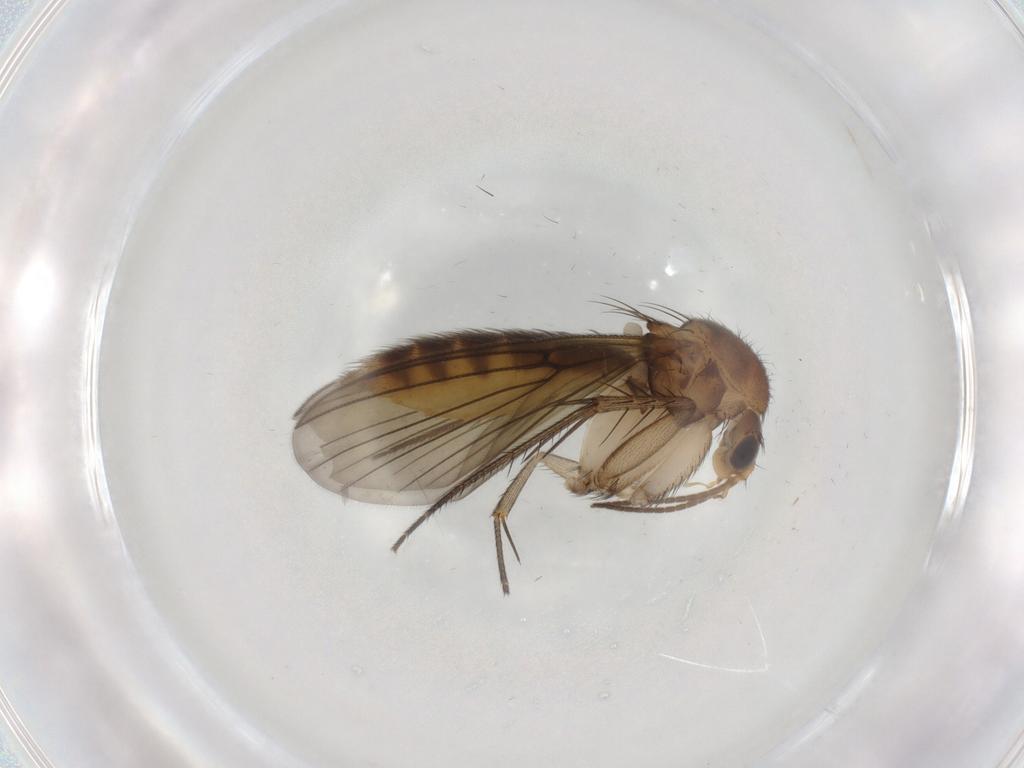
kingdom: Animalia
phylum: Arthropoda
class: Insecta
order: Diptera
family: Mycetophilidae
